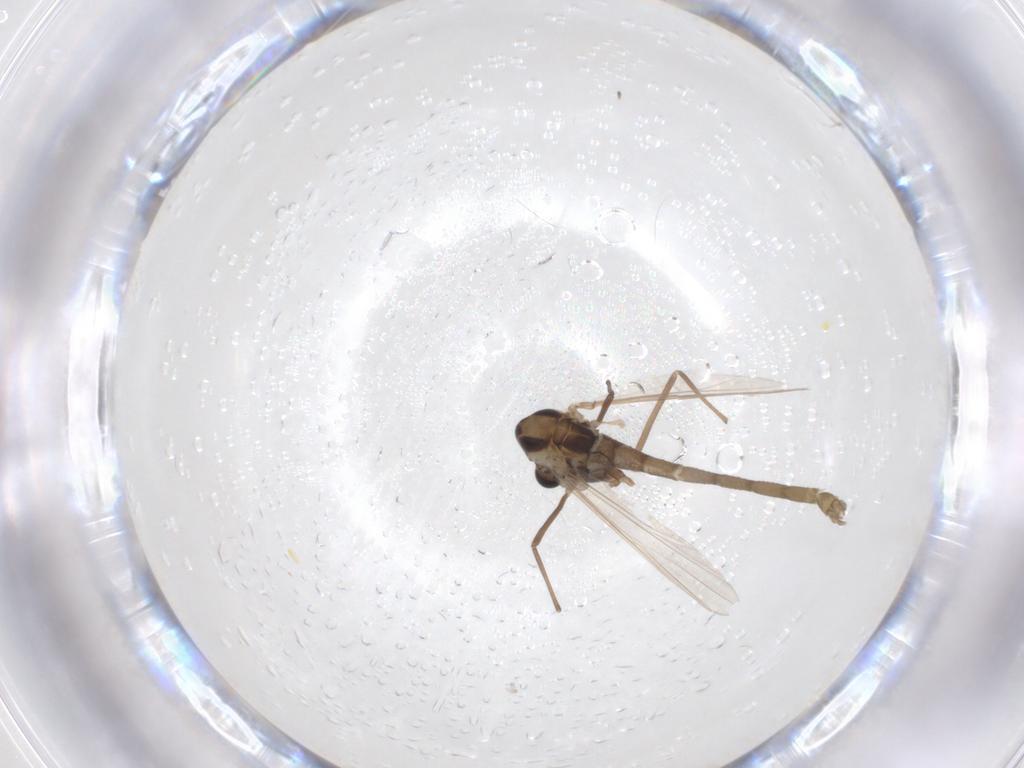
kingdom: Animalia
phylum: Arthropoda
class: Insecta
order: Diptera
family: Chironomidae
